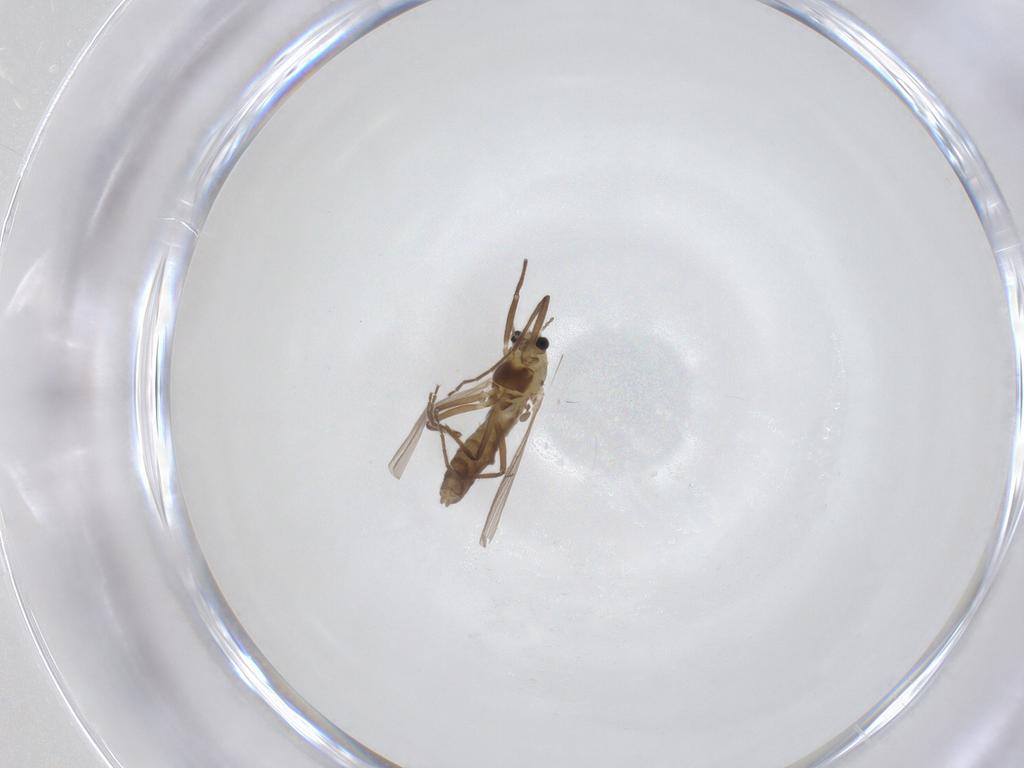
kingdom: Animalia
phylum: Arthropoda
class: Insecta
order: Diptera
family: Chironomidae
